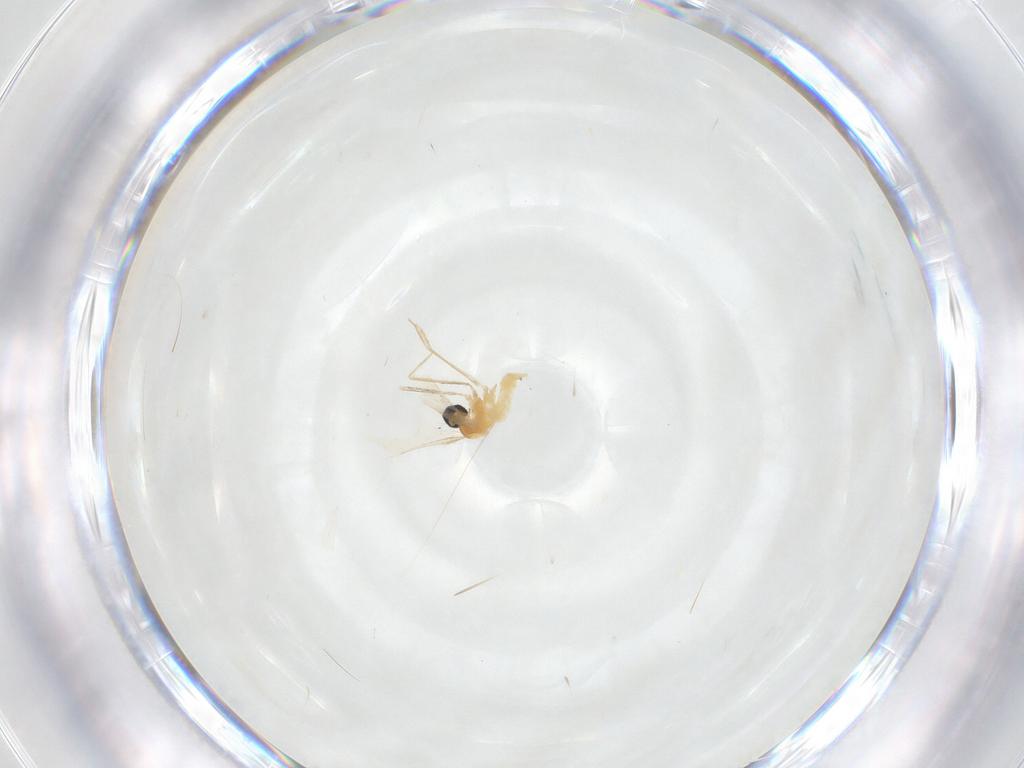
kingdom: Animalia
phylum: Arthropoda
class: Insecta
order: Diptera
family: Cecidomyiidae
